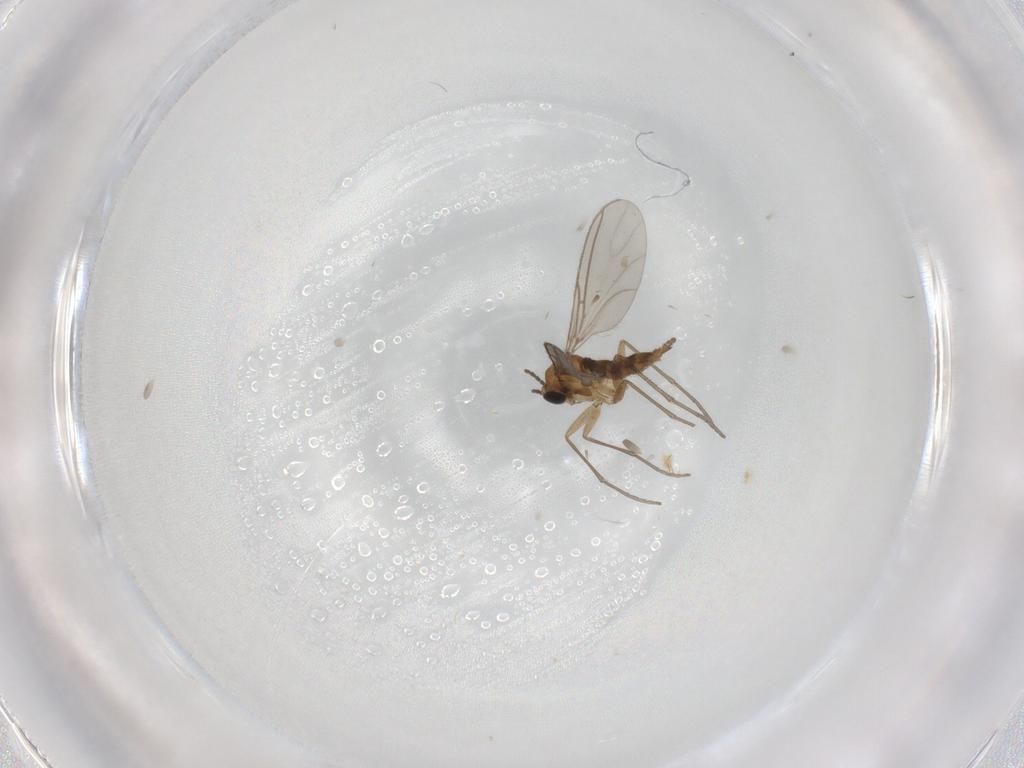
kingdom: Animalia
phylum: Arthropoda
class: Insecta
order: Diptera
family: Sciaridae
